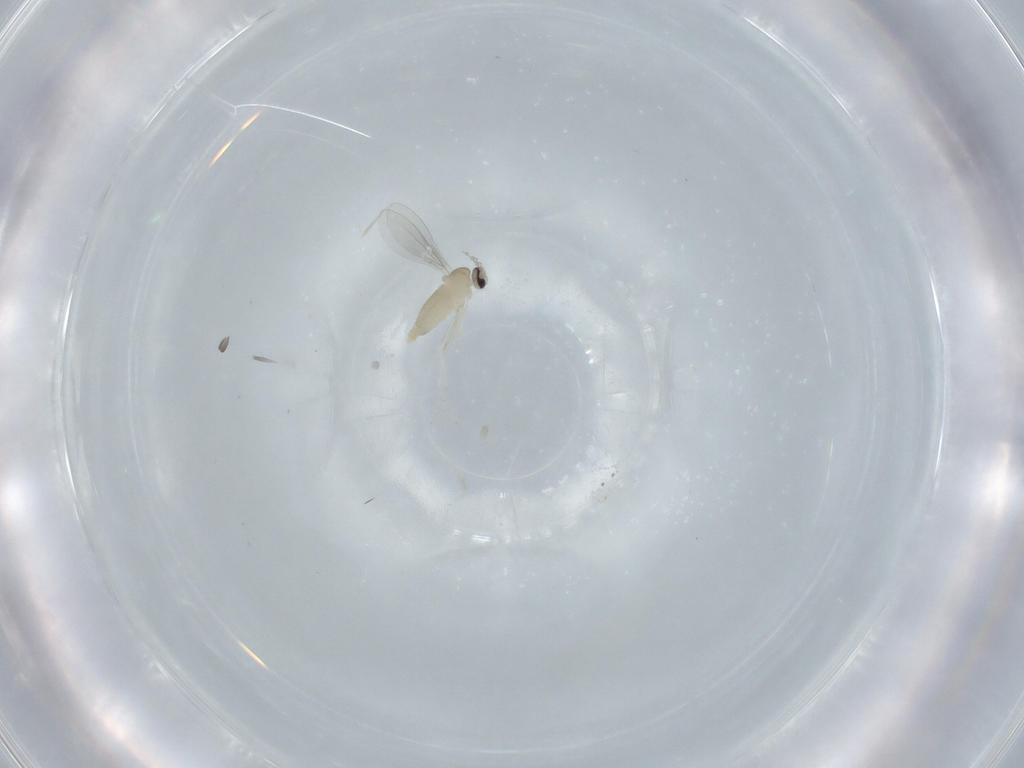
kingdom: Animalia
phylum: Arthropoda
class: Insecta
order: Diptera
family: Cecidomyiidae
